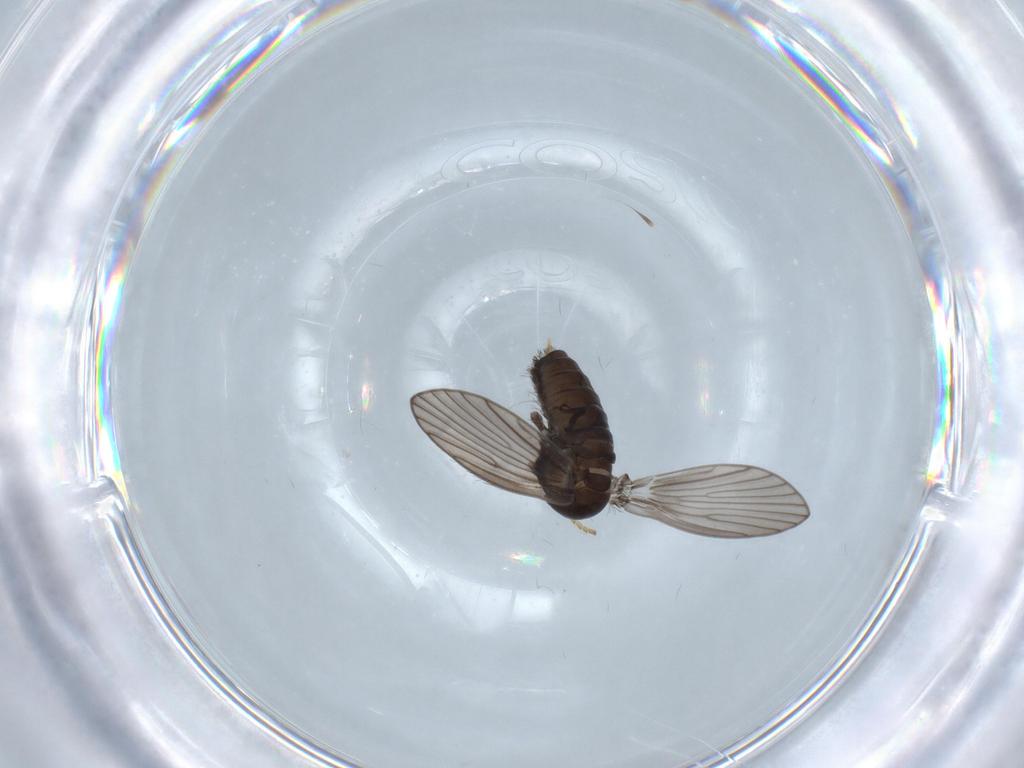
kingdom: Animalia
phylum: Arthropoda
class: Insecta
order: Diptera
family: Psychodidae
